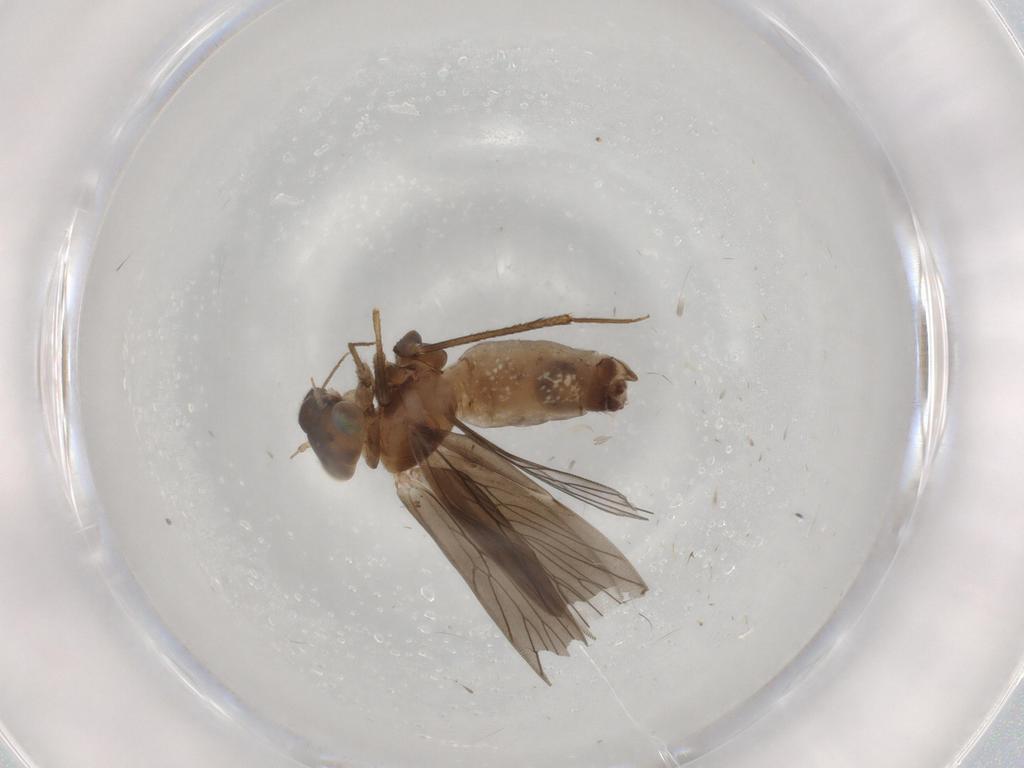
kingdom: Animalia
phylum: Arthropoda
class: Insecta
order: Psocodea
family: Lepidopsocidae
